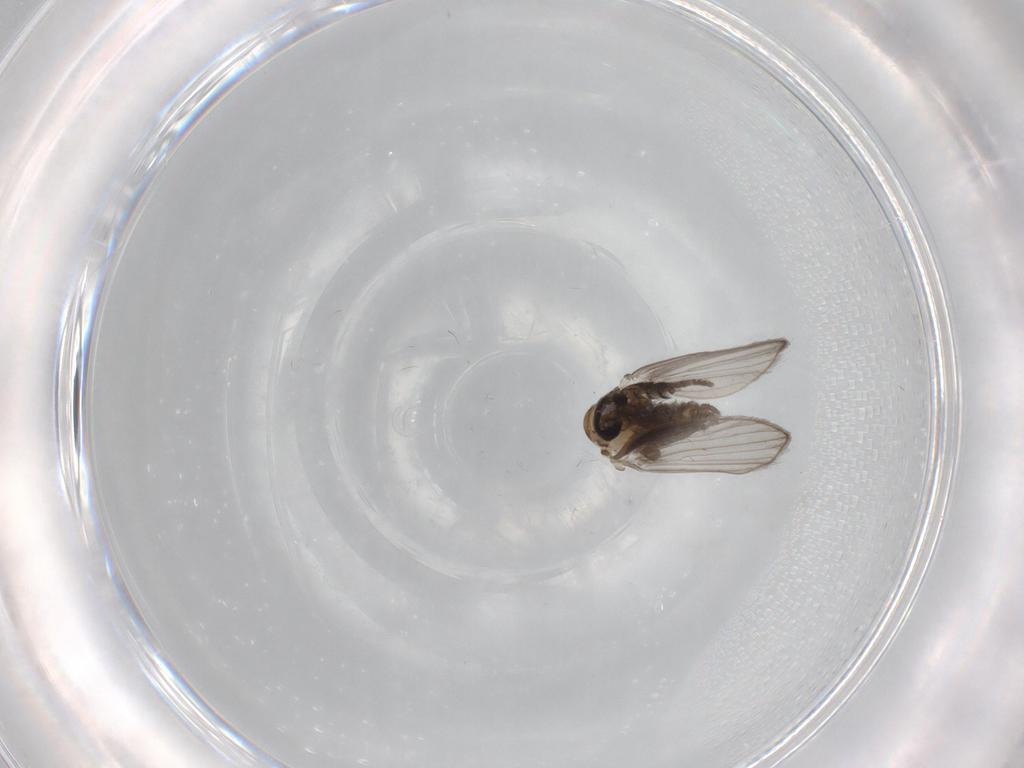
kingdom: Animalia
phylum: Arthropoda
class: Insecta
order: Diptera
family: Psychodidae
